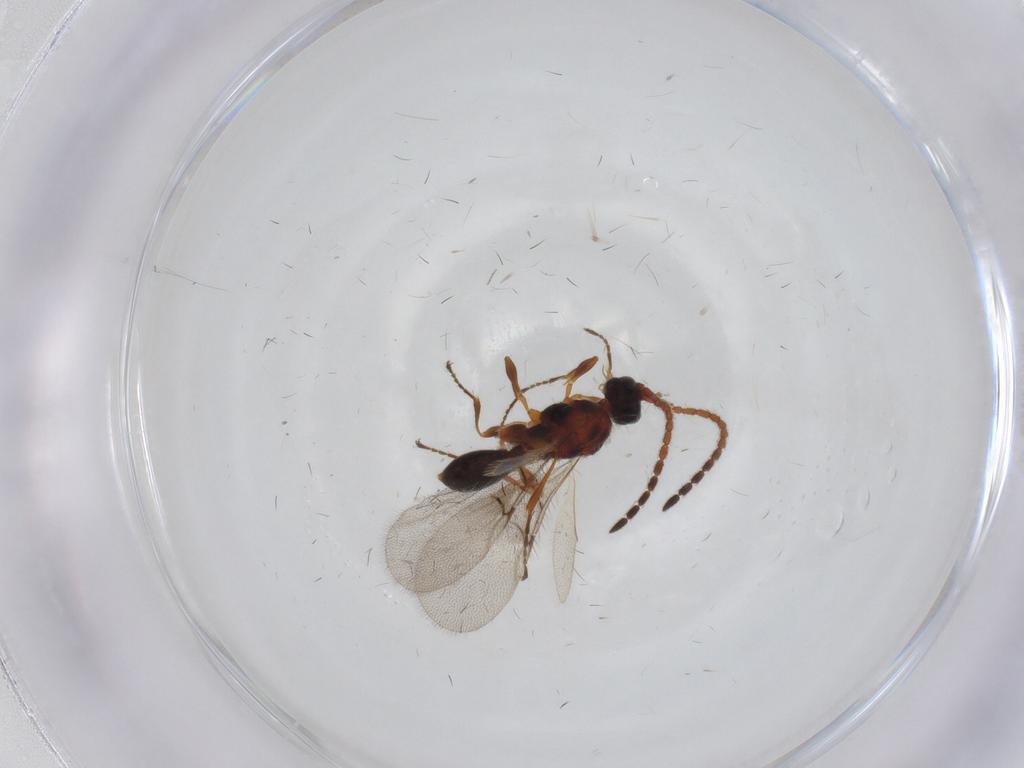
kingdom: Animalia
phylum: Arthropoda
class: Insecta
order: Hymenoptera
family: Diapriidae
